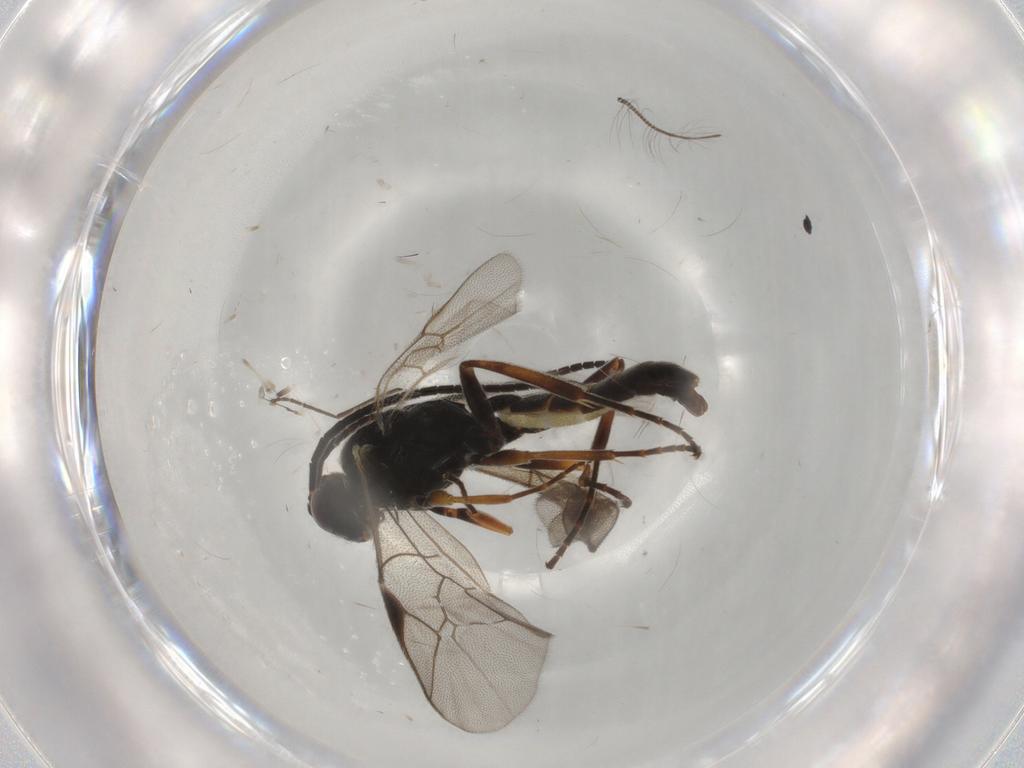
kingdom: Animalia
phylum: Arthropoda
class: Insecta
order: Hymenoptera
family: Ichneumonidae
